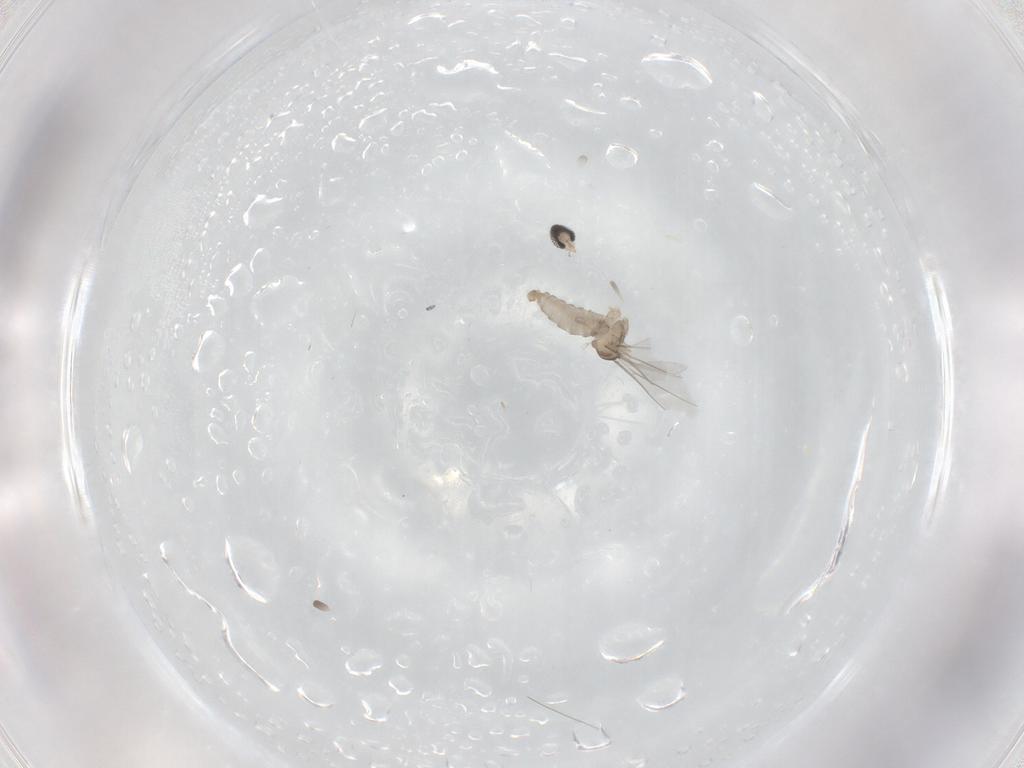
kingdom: Animalia
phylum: Arthropoda
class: Insecta
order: Diptera
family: Cecidomyiidae
